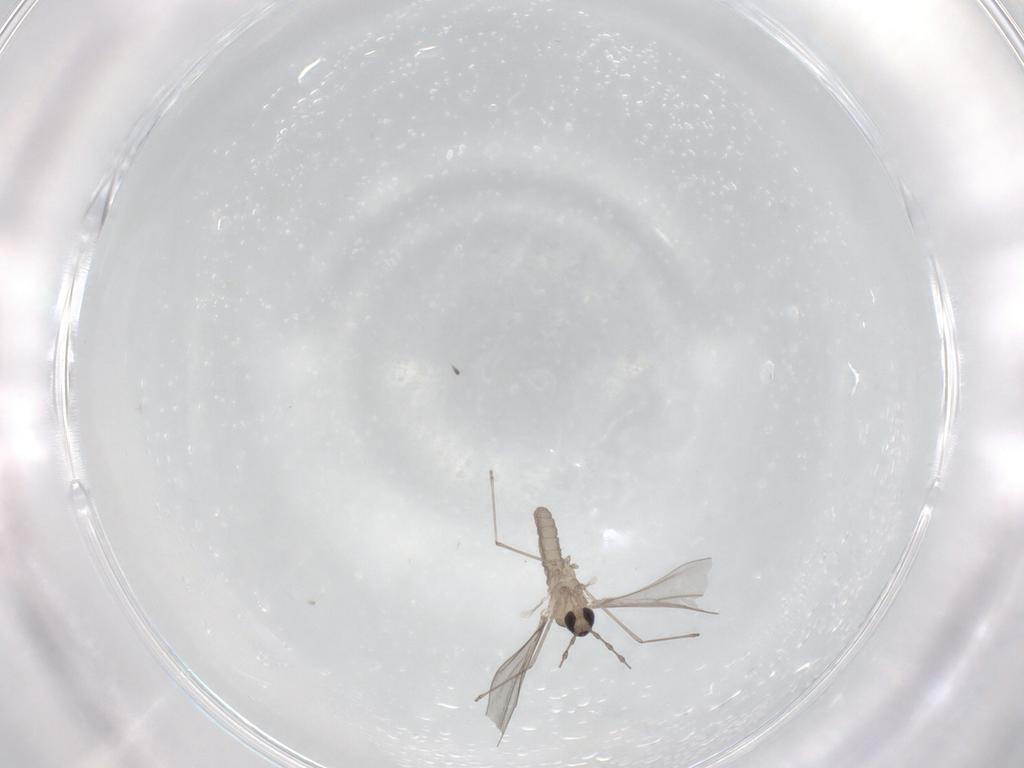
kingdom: Animalia
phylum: Arthropoda
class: Insecta
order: Diptera
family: Cecidomyiidae
